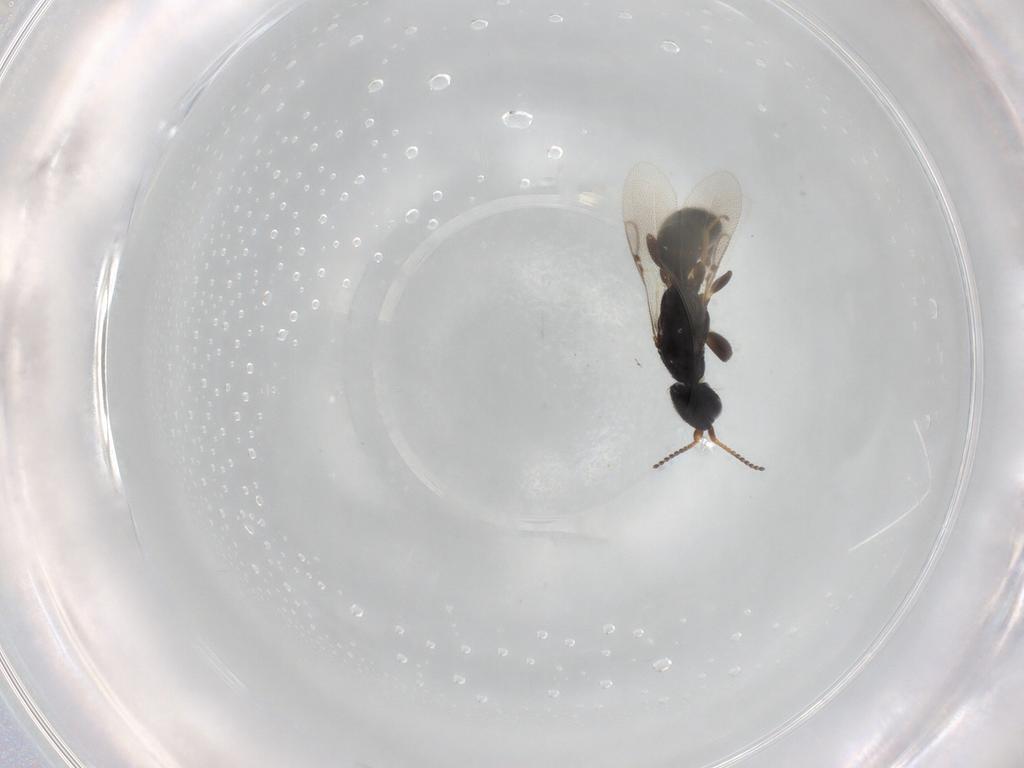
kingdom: Animalia
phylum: Arthropoda
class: Insecta
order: Hymenoptera
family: Bethylidae
